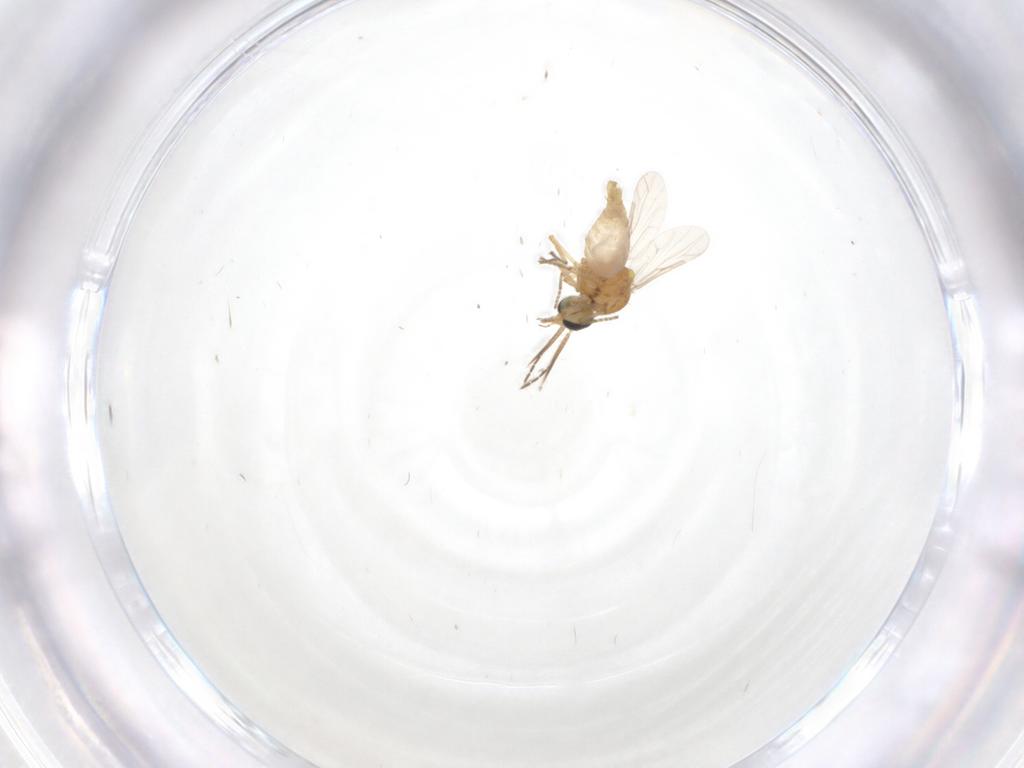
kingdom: Animalia
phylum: Arthropoda
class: Insecta
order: Diptera
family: Ceratopogonidae
